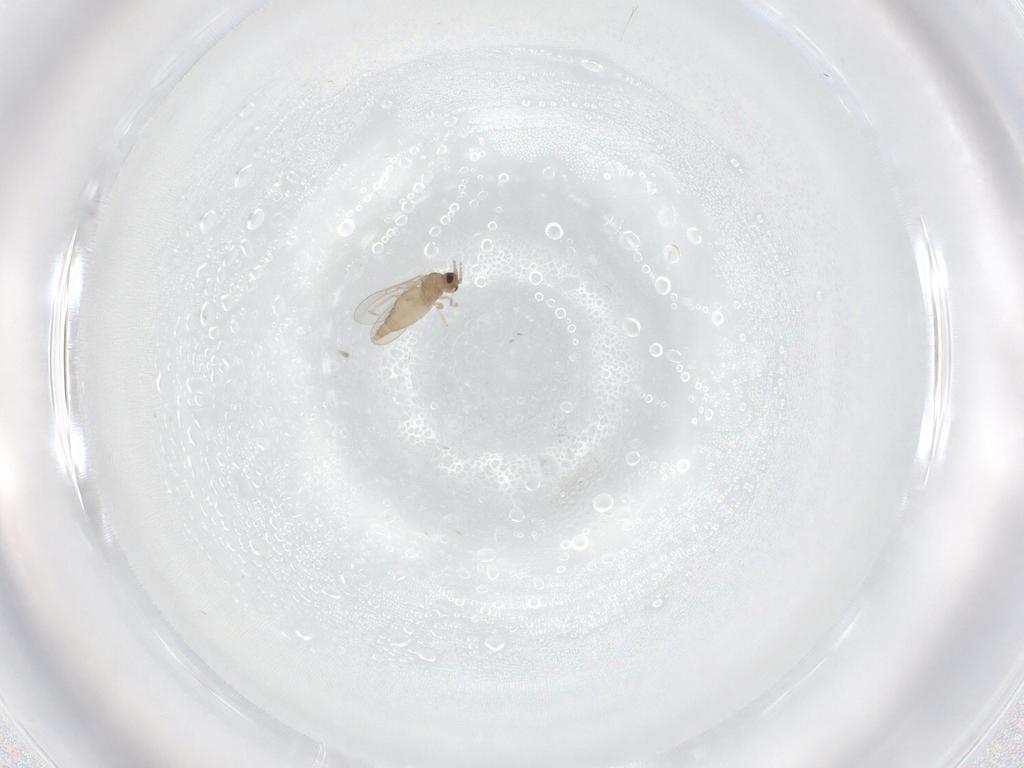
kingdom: Animalia
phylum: Arthropoda
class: Insecta
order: Diptera
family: Cecidomyiidae
